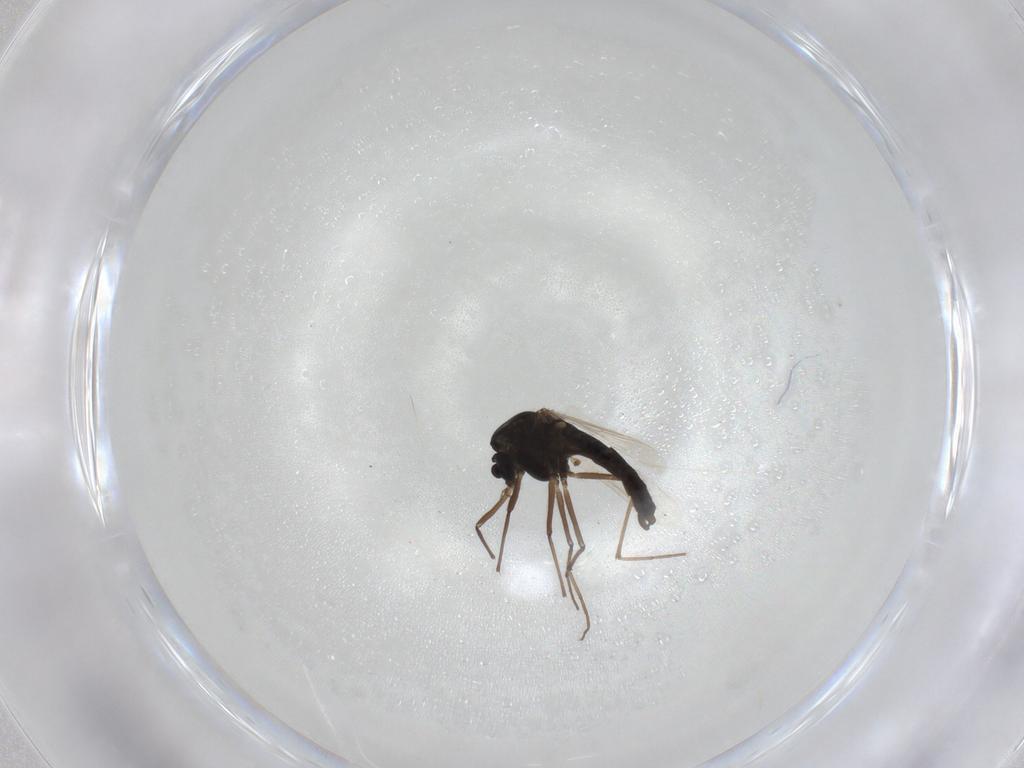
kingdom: Animalia
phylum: Arthropoda
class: Insecta
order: Diptera
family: Chironomidae
